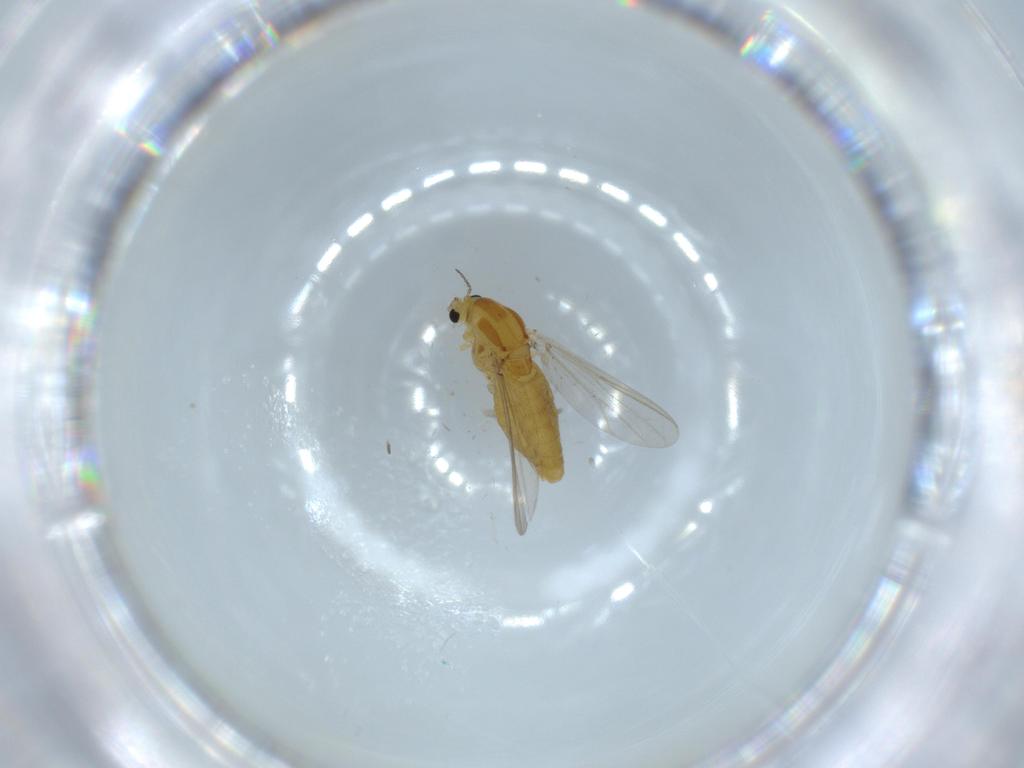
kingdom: Animalia
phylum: Arthropoda
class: Insecta
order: Diptera
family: Chironomidae
